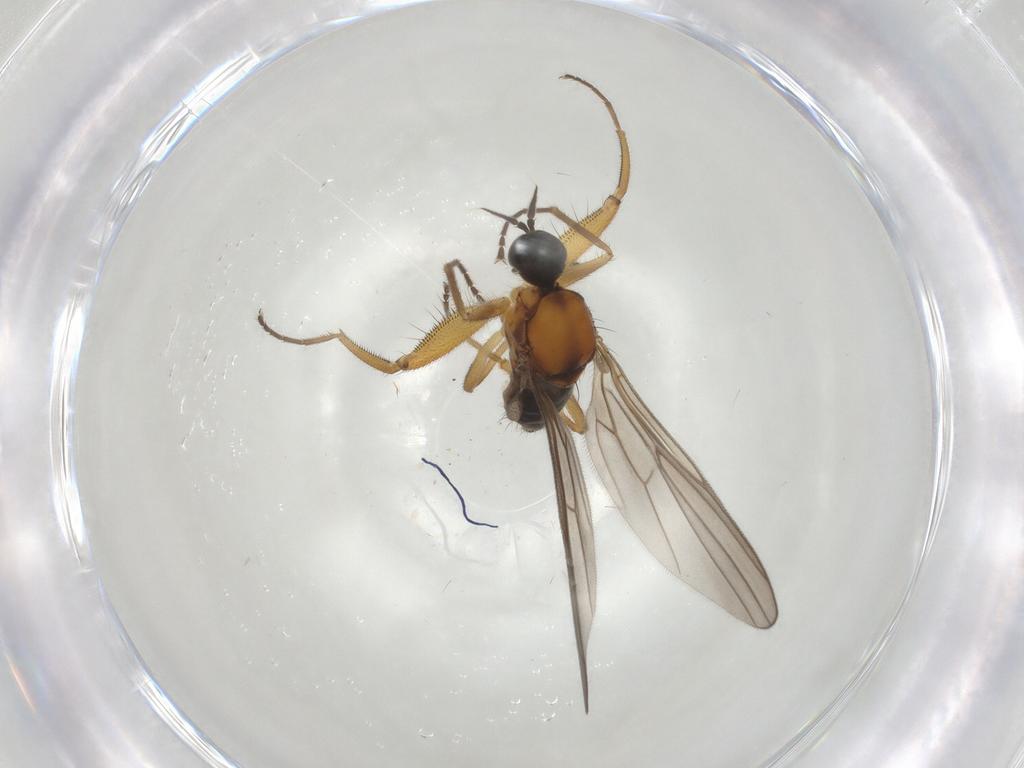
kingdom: Animalia
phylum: Arthropoda
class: Insecta
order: Diptera
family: Hybotidae
